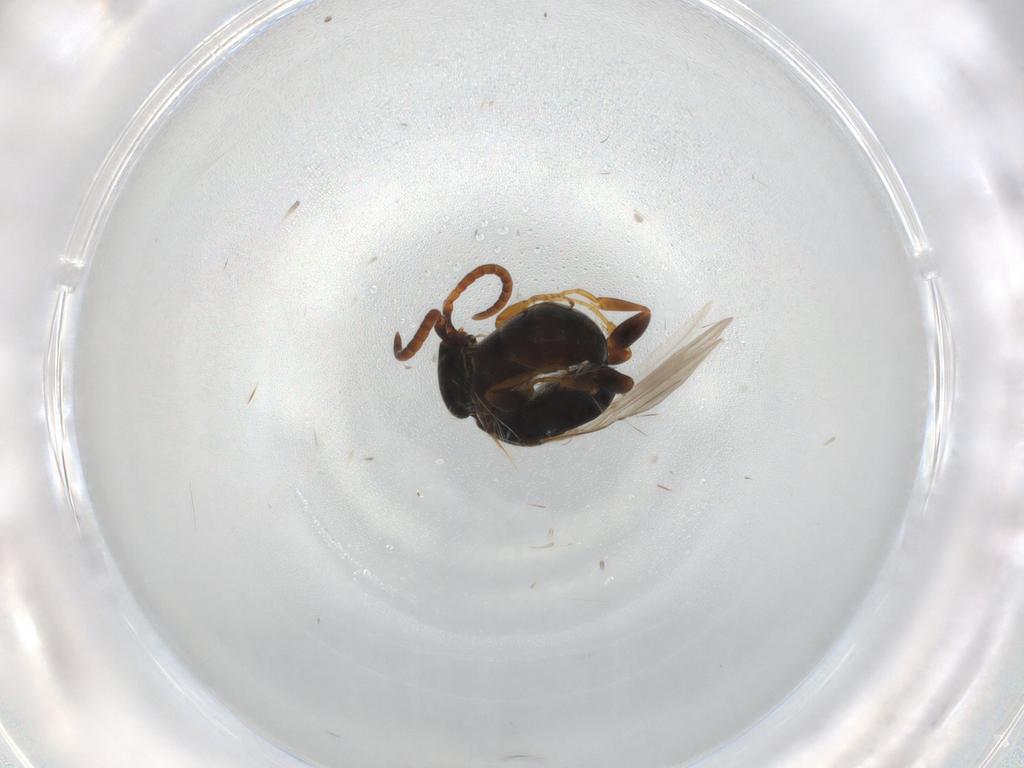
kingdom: Animalia
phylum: Arthropoda
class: Insecta
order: Hymenoptera
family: Bethylidae
